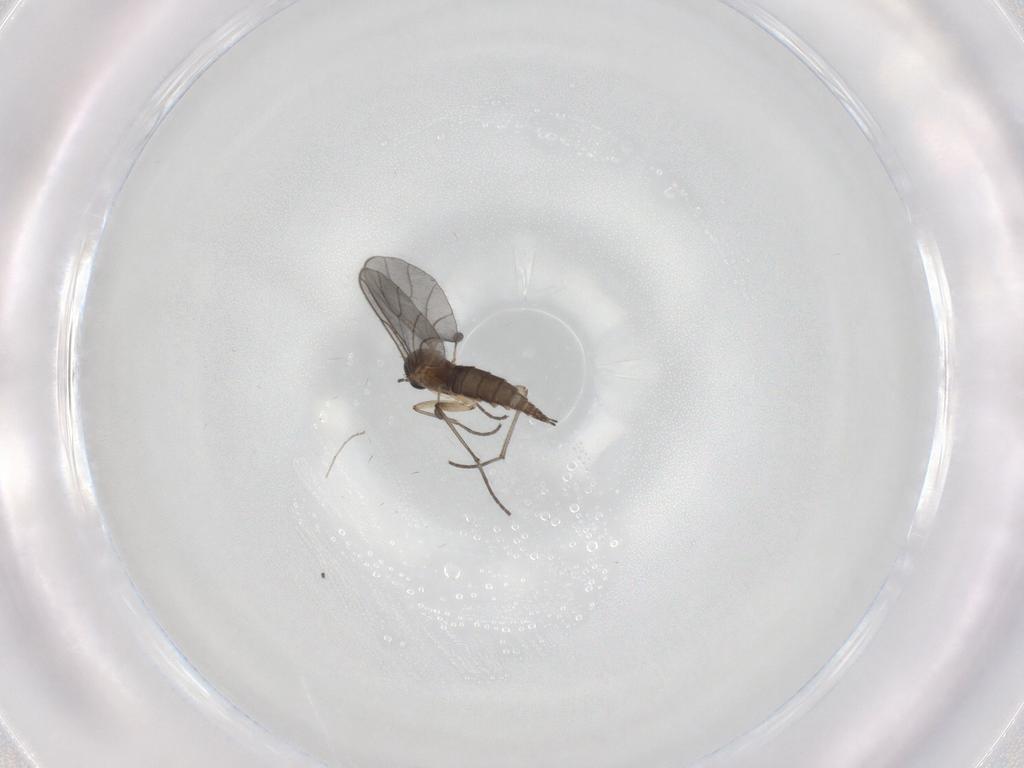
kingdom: Animalia
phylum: Arthropoda
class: Insecta
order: Diptera
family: Sciaridae
